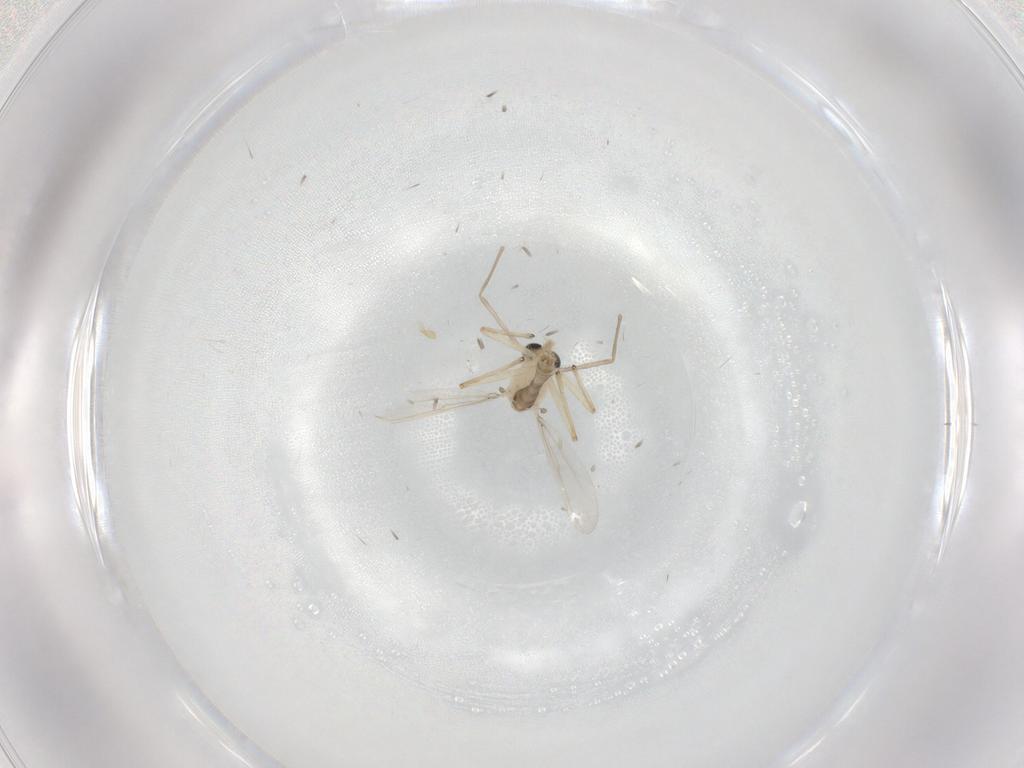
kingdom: Animalia
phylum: Arthropoda
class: Insecta
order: Diptera
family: Chironomidae
